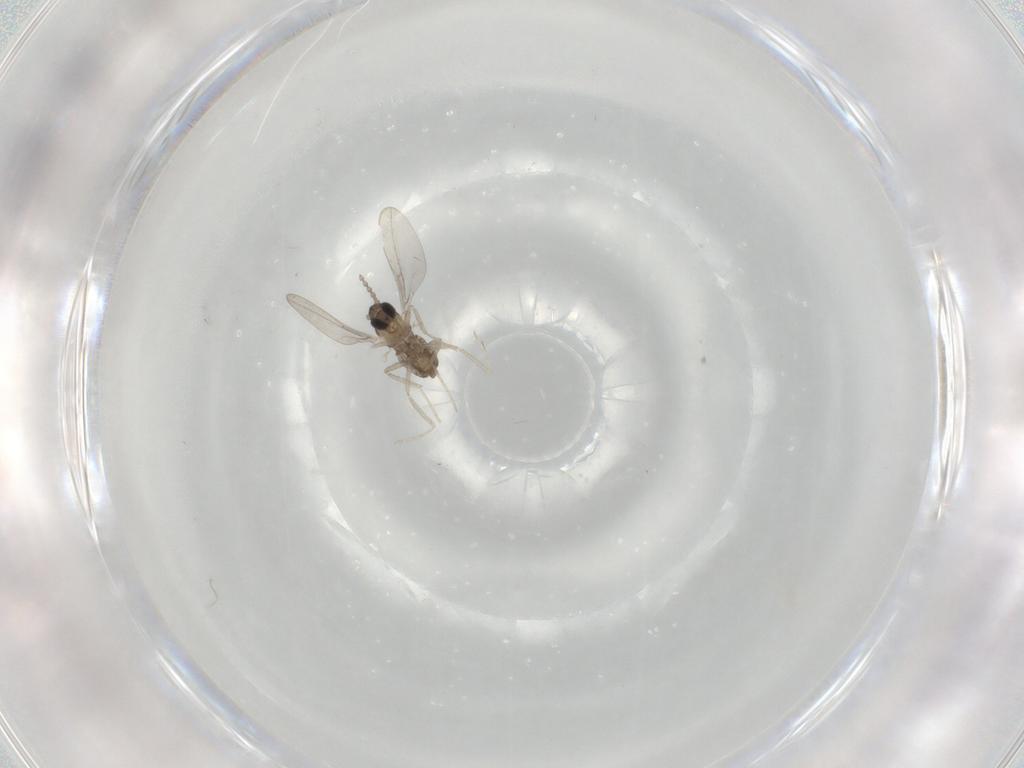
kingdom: Animalia
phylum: Arthropoda
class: Insecta
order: Diptera
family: Cecidomyiidae
